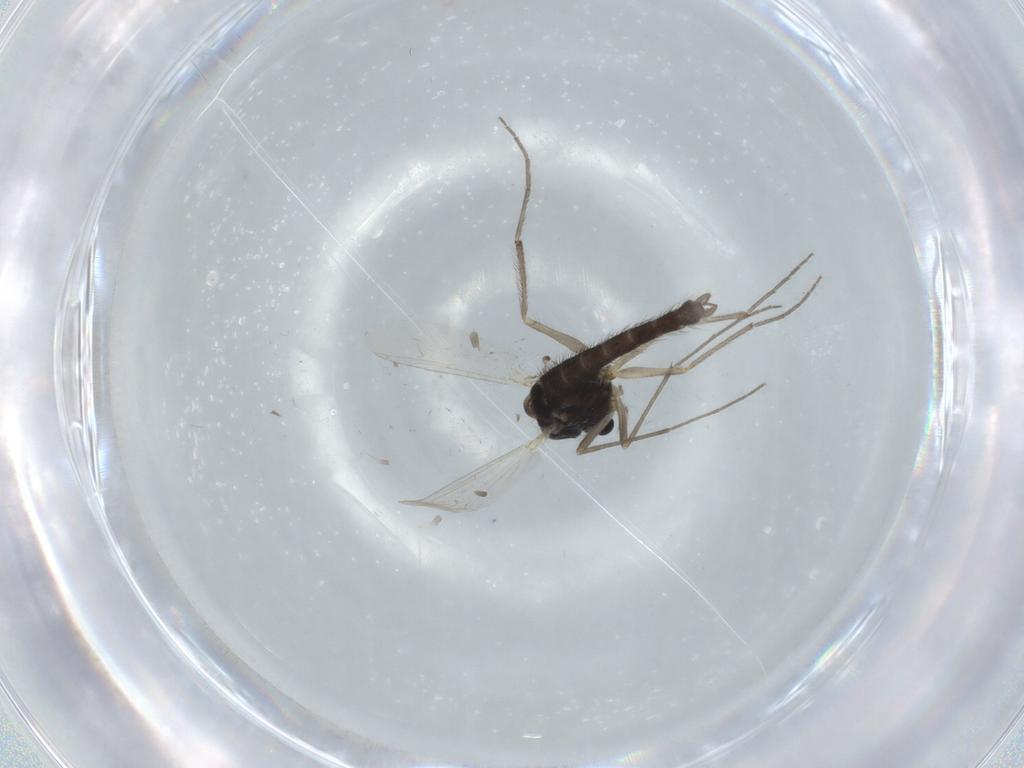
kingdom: Animalia
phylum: Arthropoda
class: Insecta
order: Diptera
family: Chironomidae
